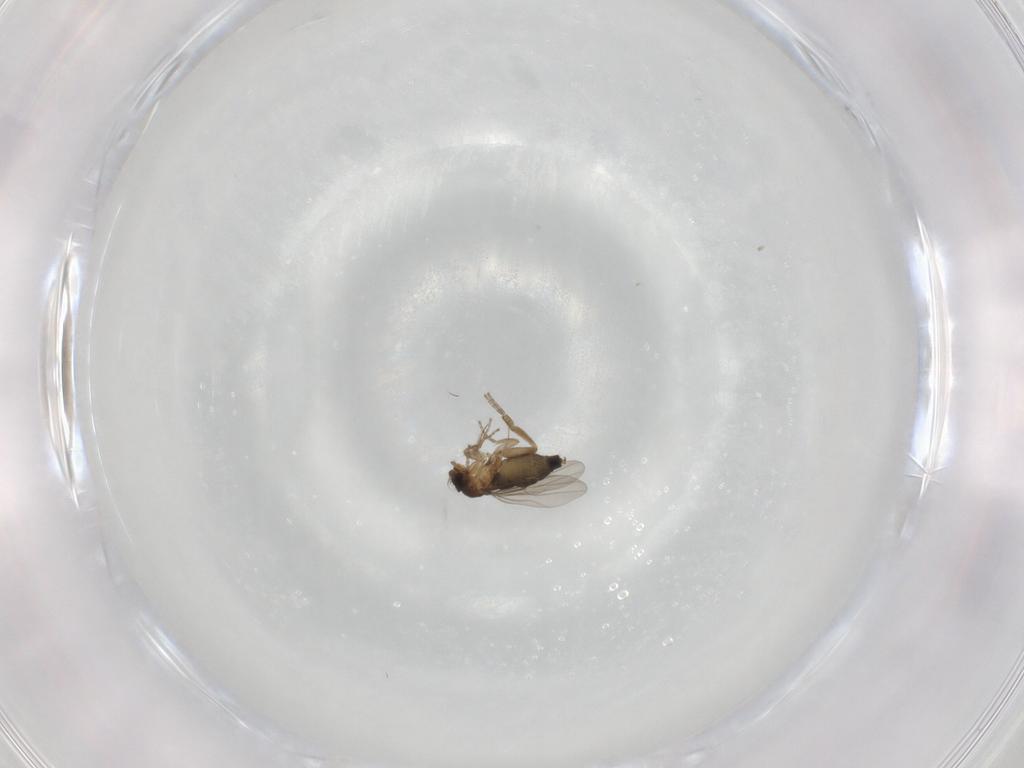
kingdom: Animalia
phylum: Arthropoda
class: Insecta
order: Diptera
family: Phoridae
